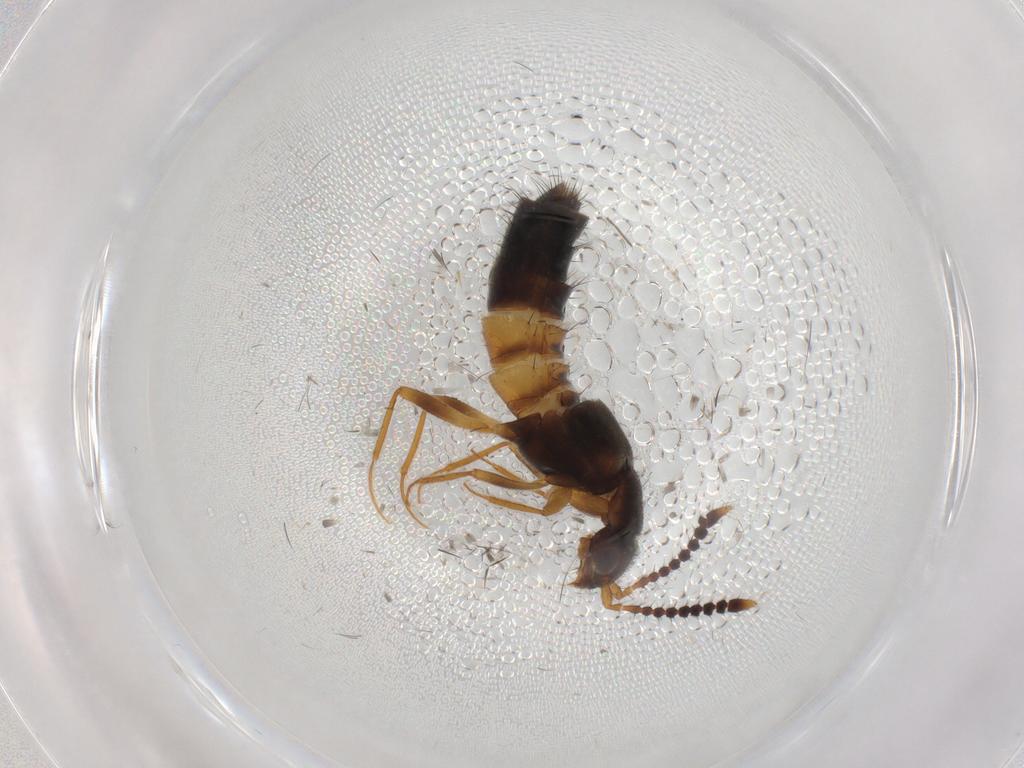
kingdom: Animalia
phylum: Arthropoda
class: Insecta
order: Coleoptera
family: Staphylinidae
